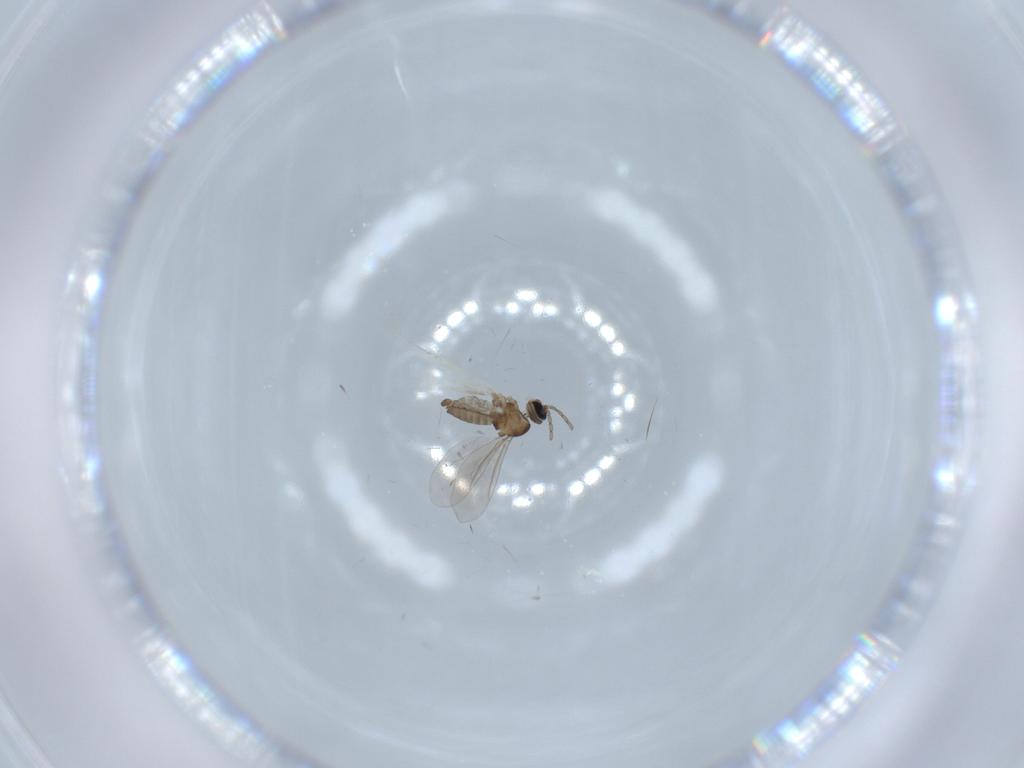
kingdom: Animalia
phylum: Arthropoda
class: Insecta
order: Diptera
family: Cecidomyiidae
